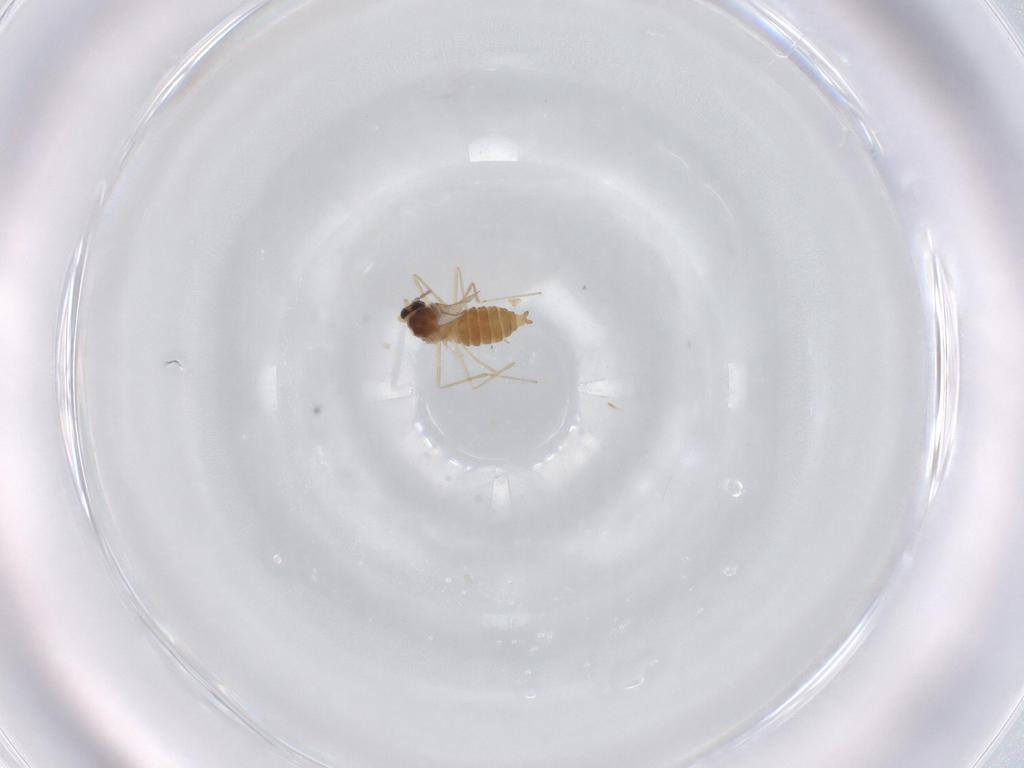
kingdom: Animalia
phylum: Arthropoda
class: Insecta
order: Diptera
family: Cecidomyiidae
